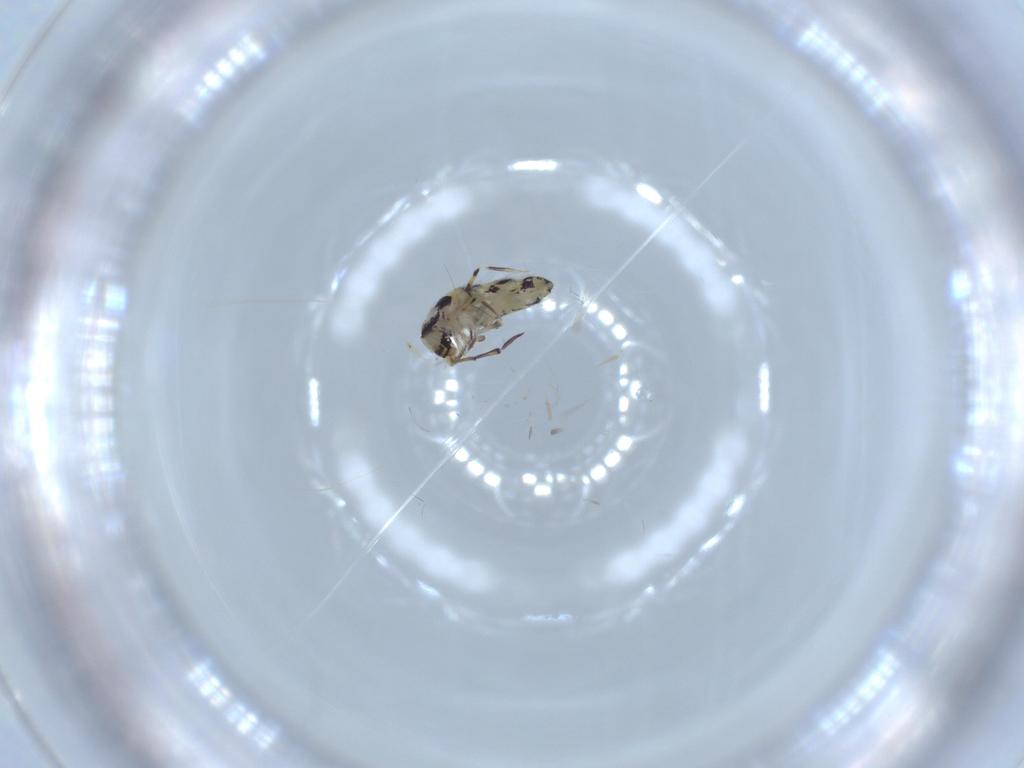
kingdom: Animalia
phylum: Arthropoda
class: Collembola
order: Entomobryomorpha
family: Entomobryidae
